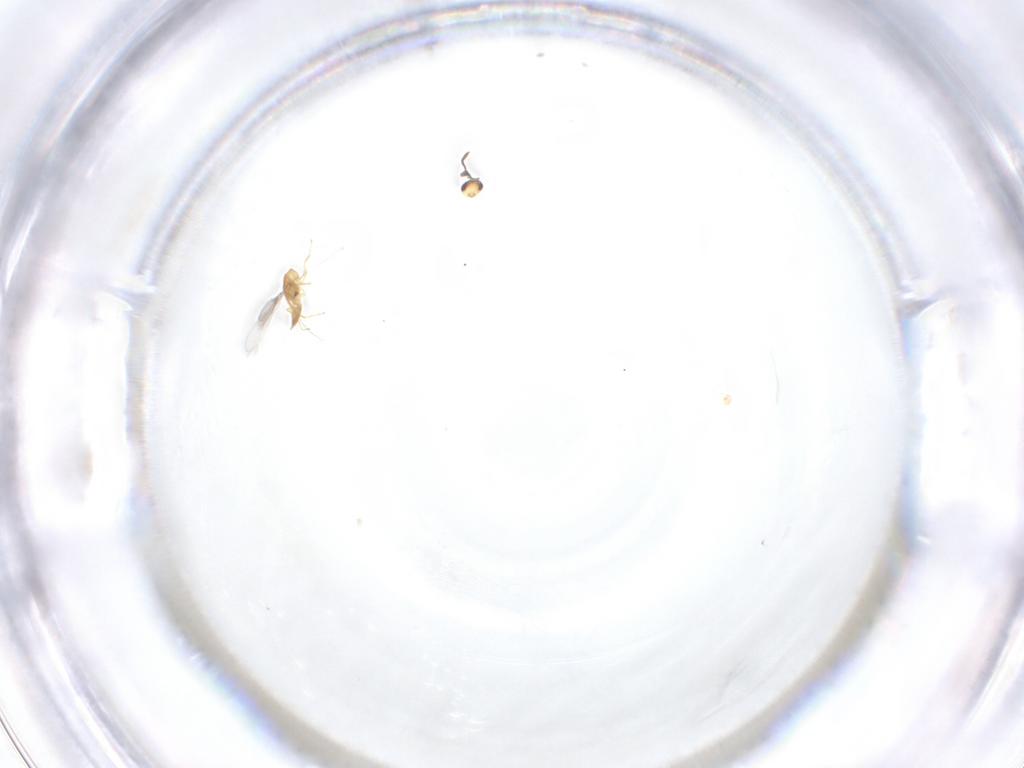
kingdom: Animalia
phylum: Arthropoda
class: Insecta
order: Hymenoptera
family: Mymaridae
